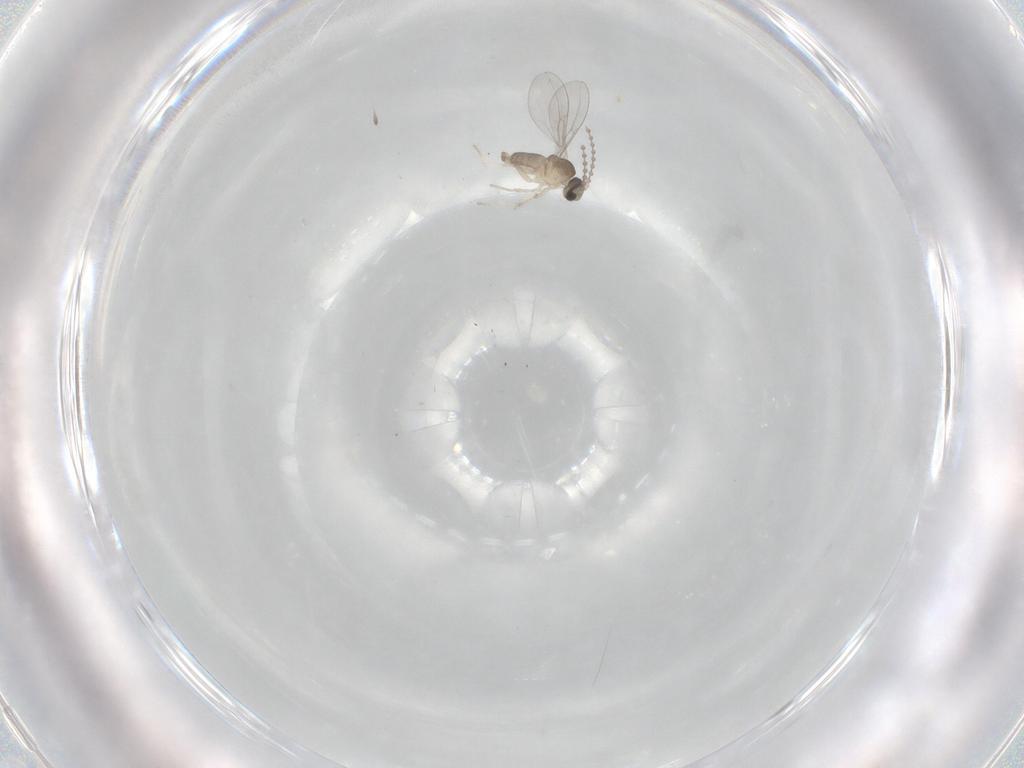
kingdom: Animalia
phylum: Arthropoda
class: Insecta
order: Diptera
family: Cecidomyiidae
